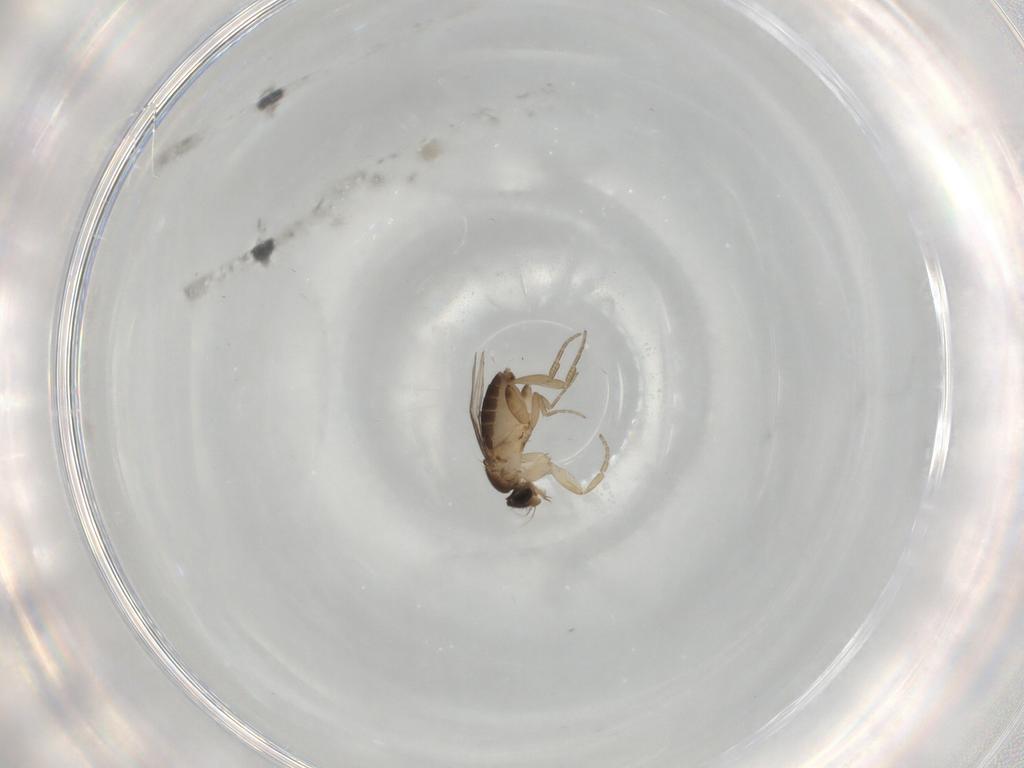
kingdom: Animalia
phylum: Arthropoda
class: Insecta
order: Diptera
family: Phoridae
